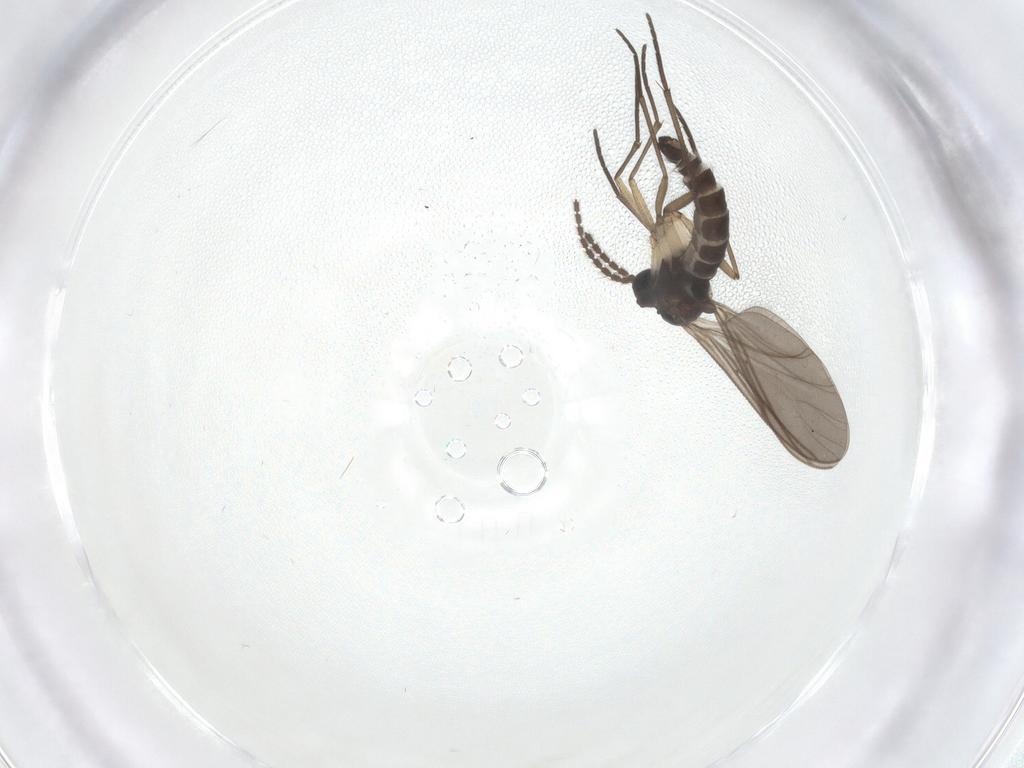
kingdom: Animalia
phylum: Arthropoda
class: Insecta
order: Diptera
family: Sciaridae
